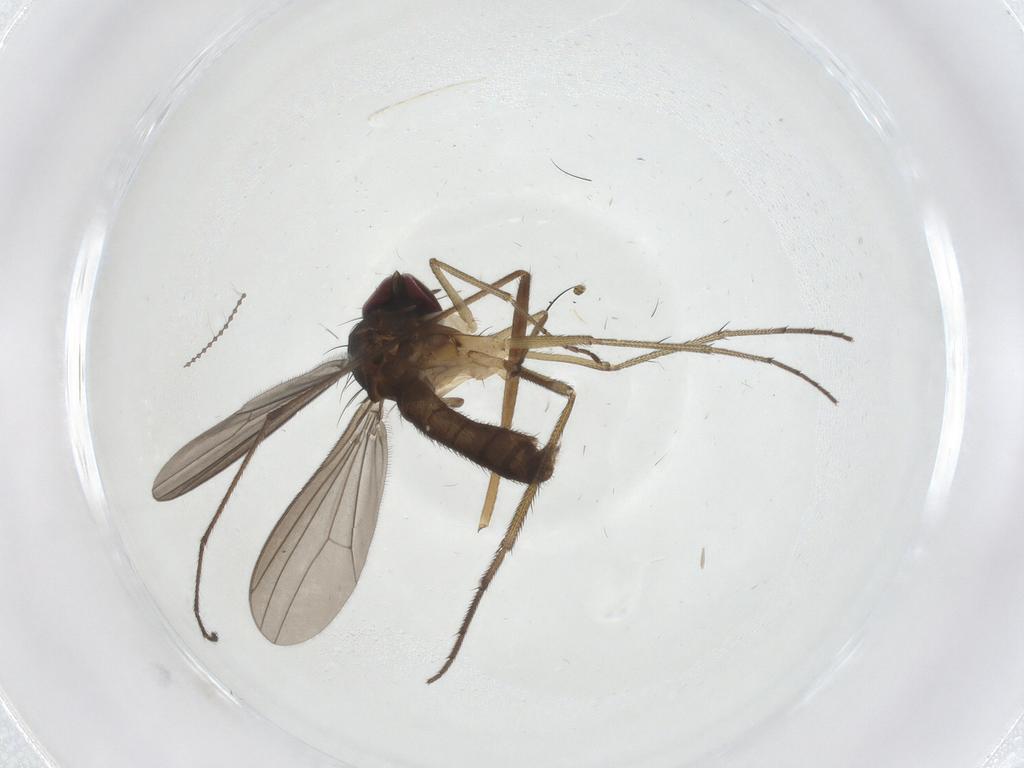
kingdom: Animalia
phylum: Arthropoda
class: Insecta
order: Diptera
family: Dolichopodidae
